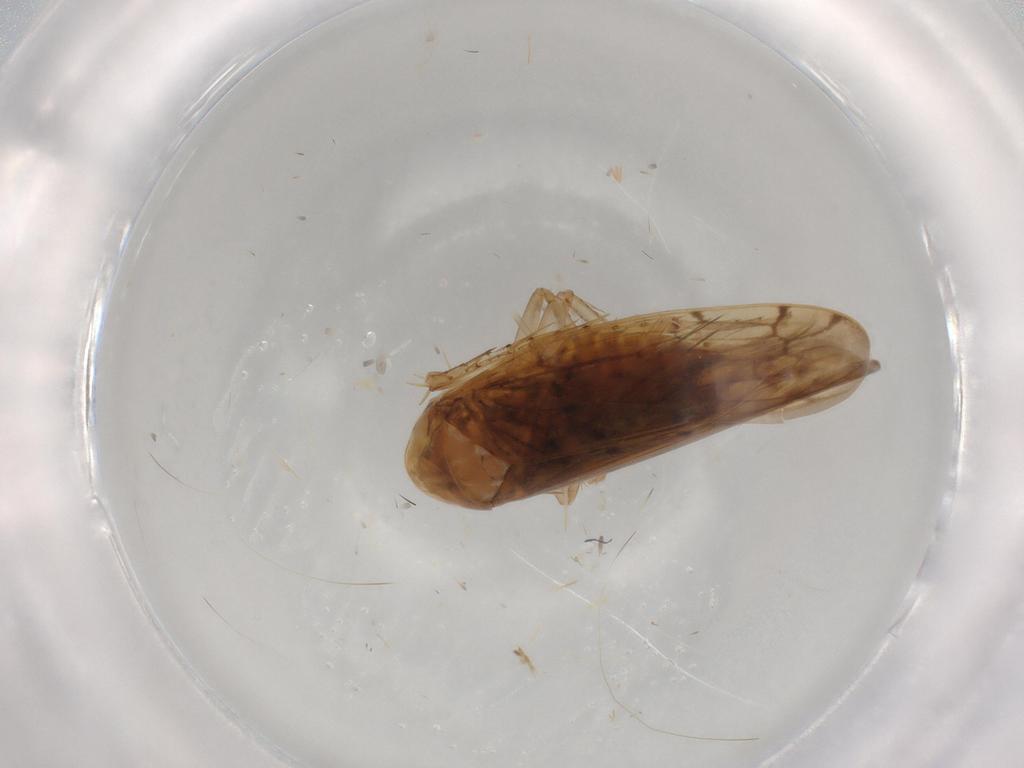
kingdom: Animalia
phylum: Arthropoda
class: Insecta
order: Hemiptera
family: Cicadellidae
